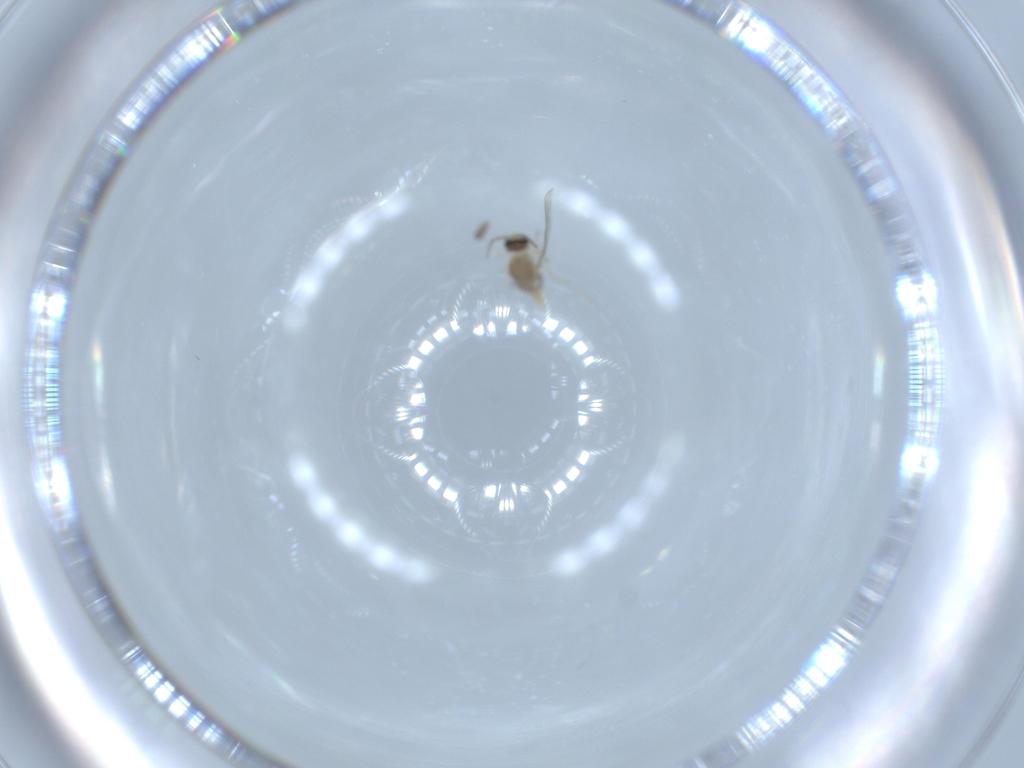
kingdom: Animalia
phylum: Arthropoda
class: Insecta
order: Diptera
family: Cecidomyiidae
